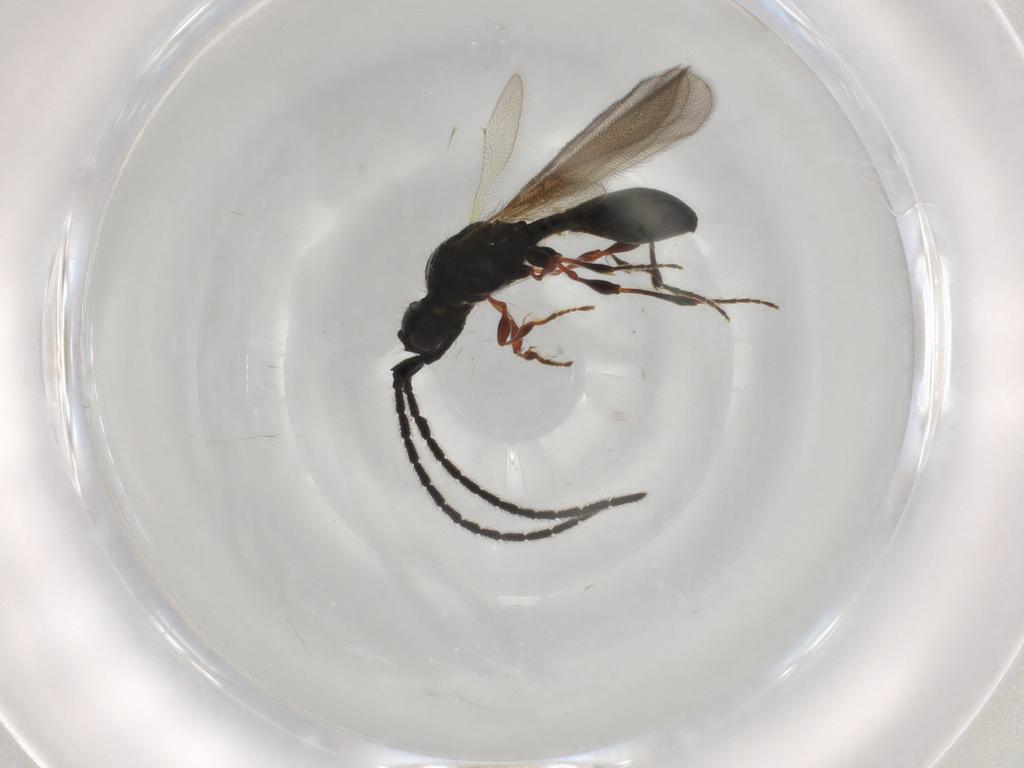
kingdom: Animalia
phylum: Arthropoda
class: Insecta
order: Hymenoptera
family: Diapriidae
